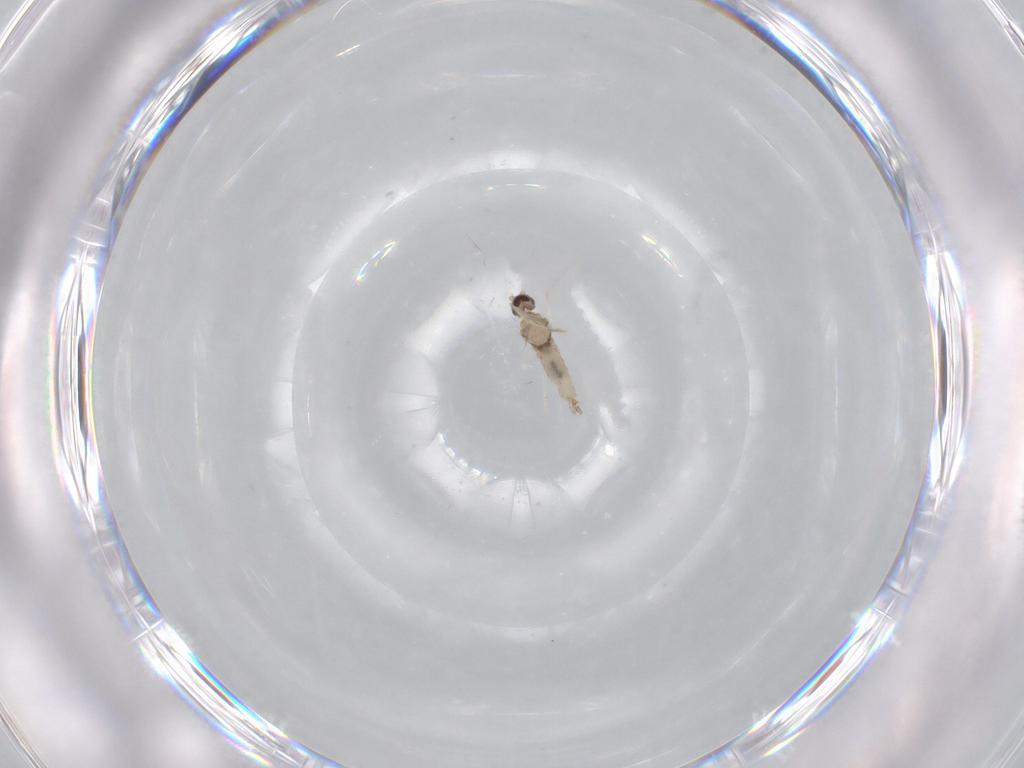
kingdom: Animalia
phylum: Arthropoda
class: Insecta
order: Diptera
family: Cecidomyiidae
